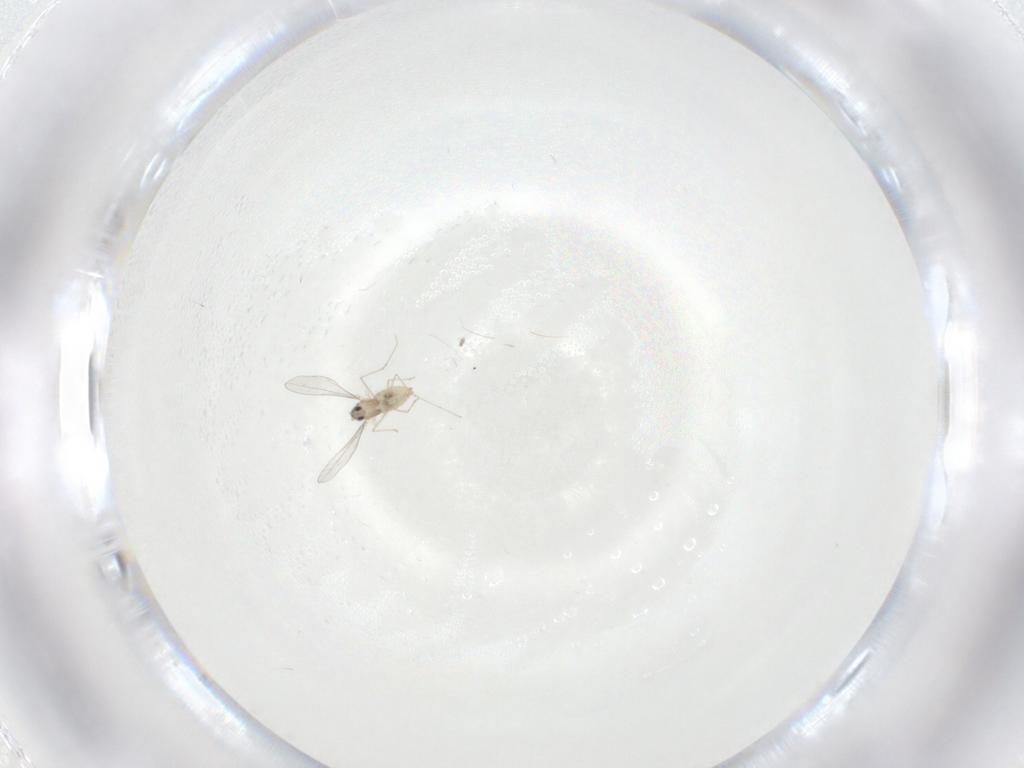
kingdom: Animalia
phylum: Arthropoda
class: Insecta
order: Diptera
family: Cecidomyiidae
